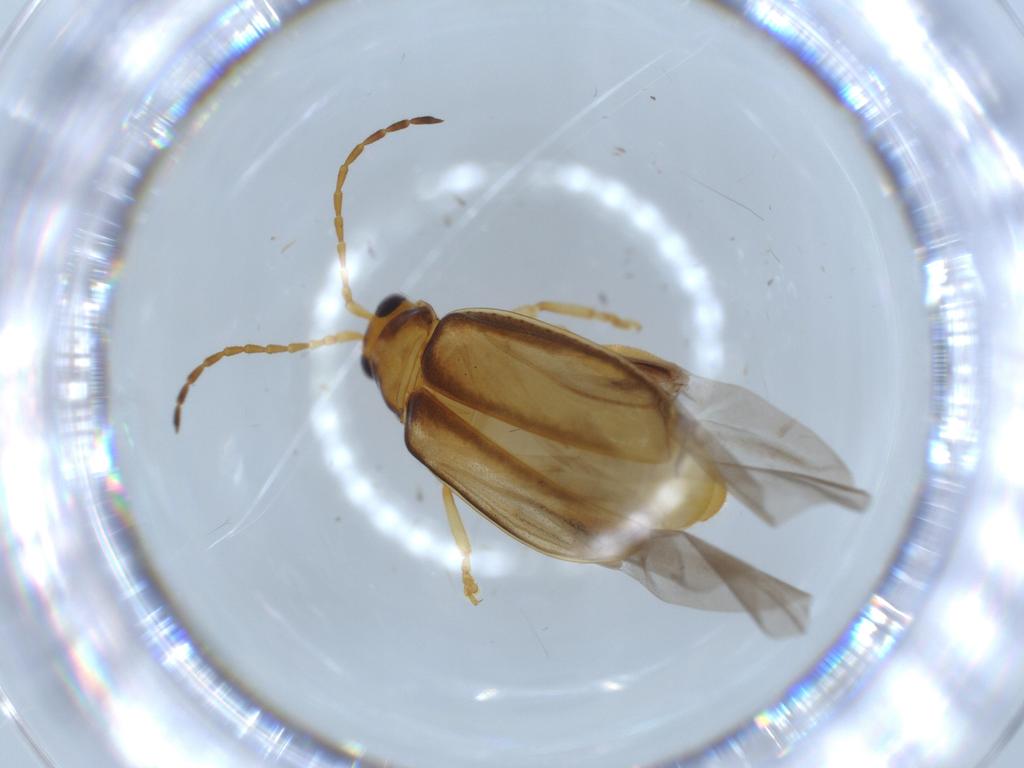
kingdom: Animalia
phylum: Arthropoda
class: Insecta
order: Coleoptera
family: Chrysomelidae
